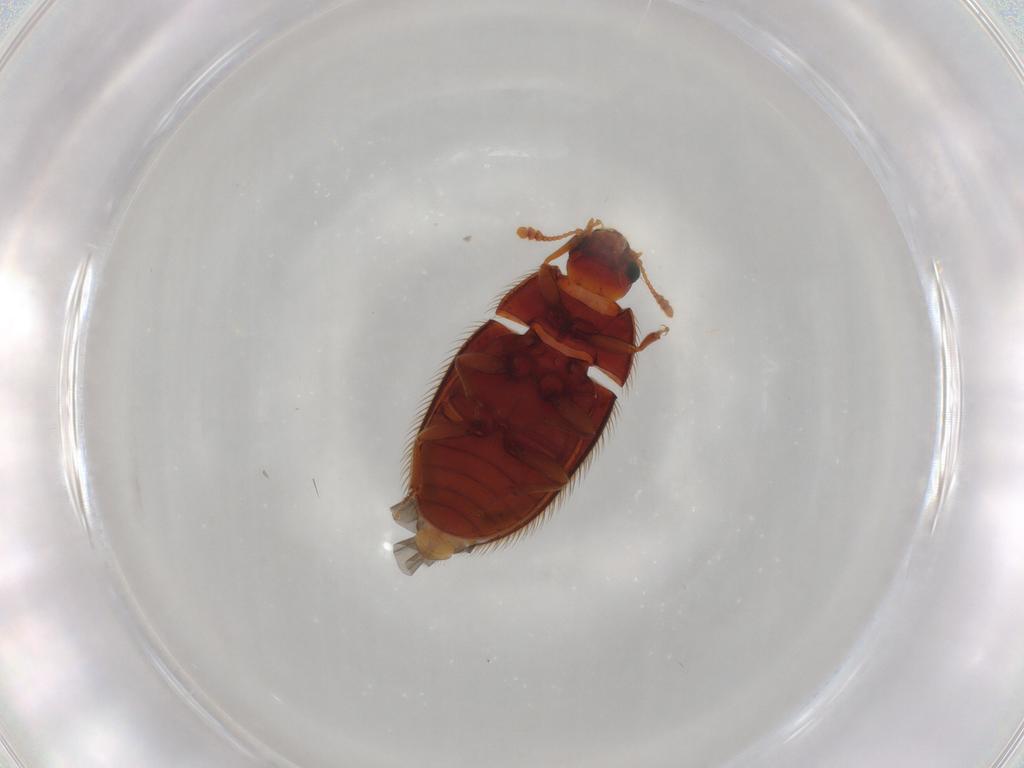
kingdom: Animalia
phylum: Arthropoda
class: Insecta
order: Coleoptera
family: Biphyllidae
